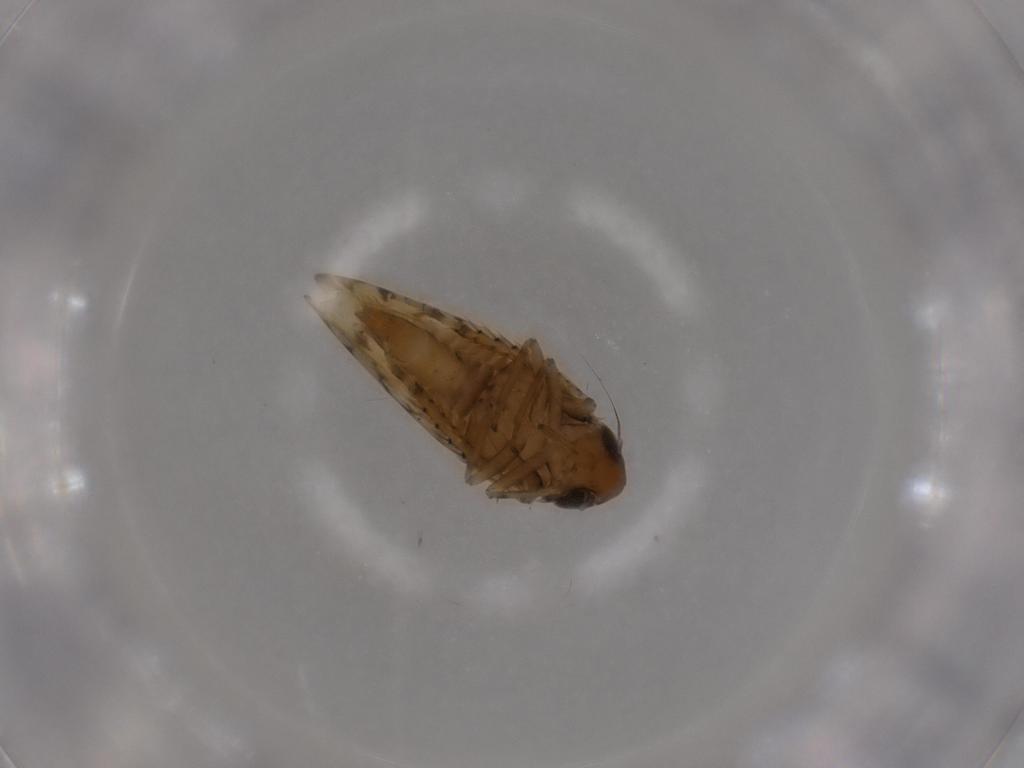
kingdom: Animalia
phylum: Arthropoda
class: Insecta
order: Hemiptera
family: Cicadellidae
